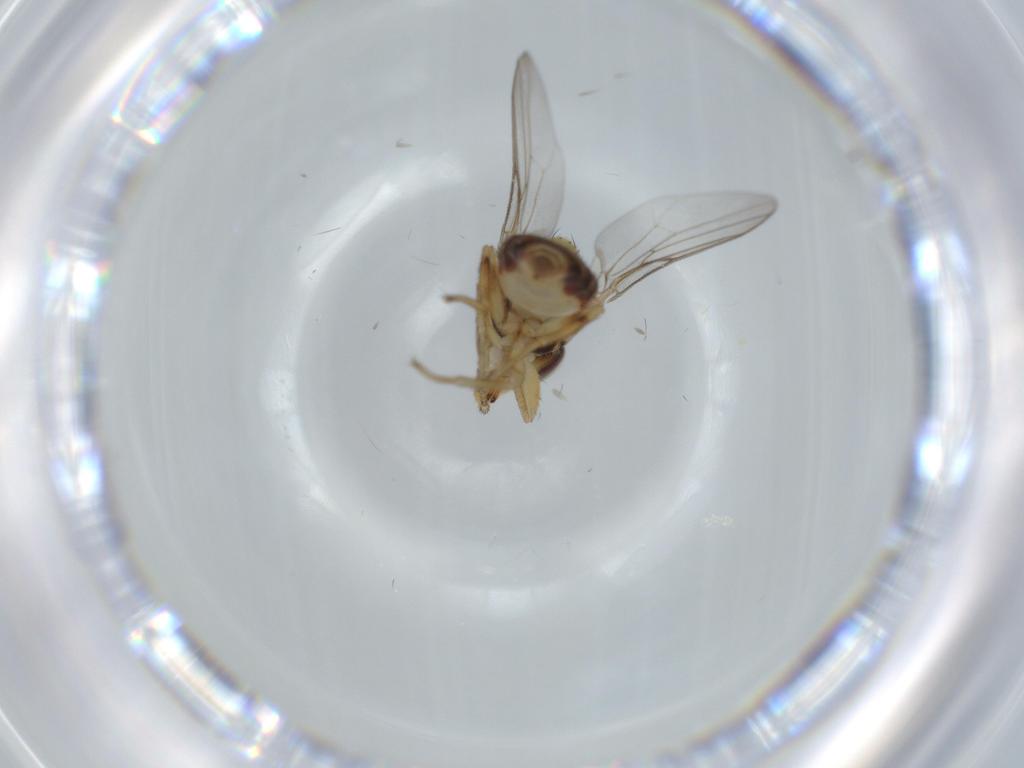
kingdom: Animalia
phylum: Arthropoda
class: Insecta
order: Diptera
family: Chloropidae
